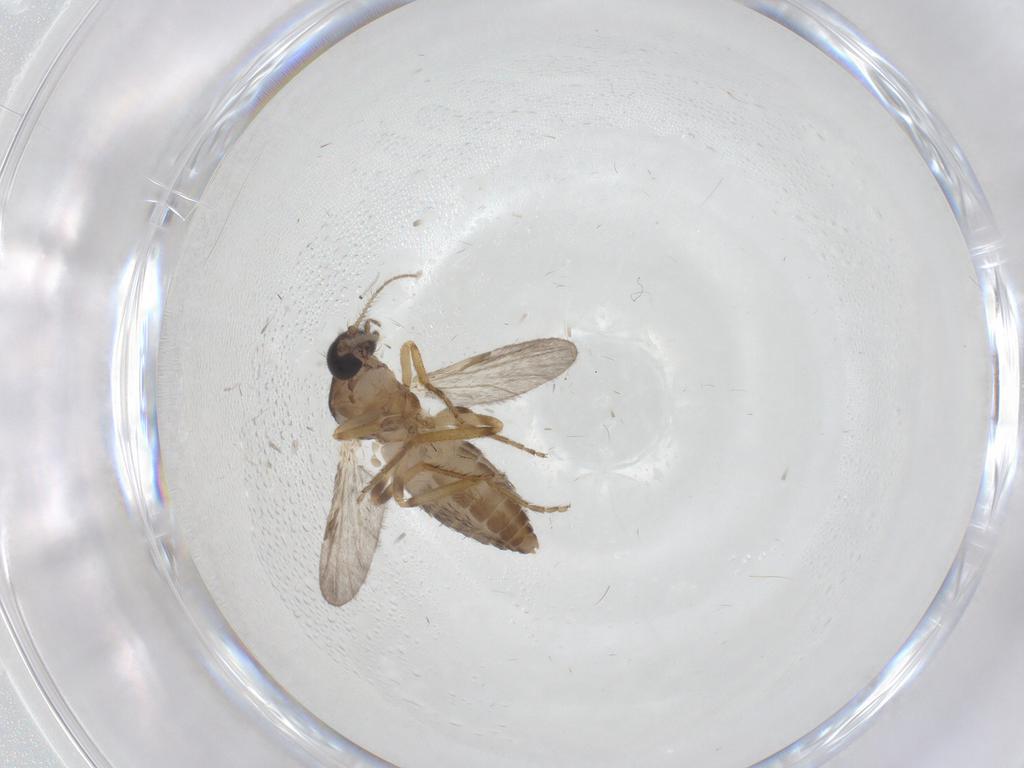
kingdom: Animalia
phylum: Arthropoda
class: Insecta
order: Diptera
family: Ceratopogonidae
